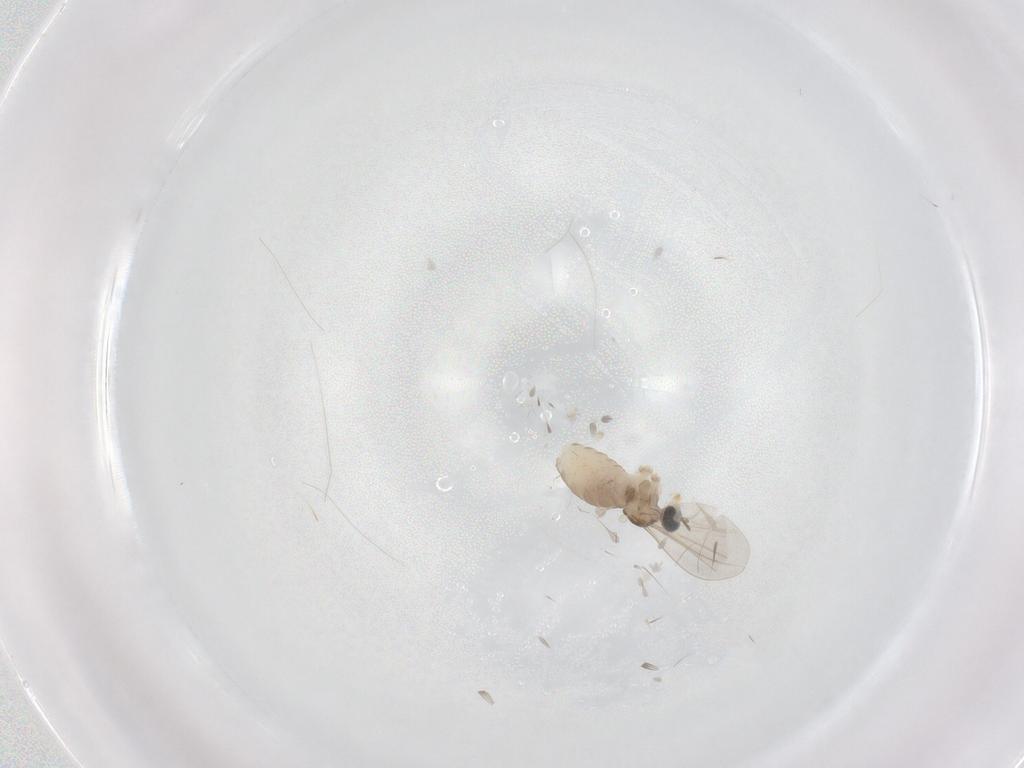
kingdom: Animalia
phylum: Arthropoda
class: Insecta
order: Diptera
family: Cecidomyiidae
